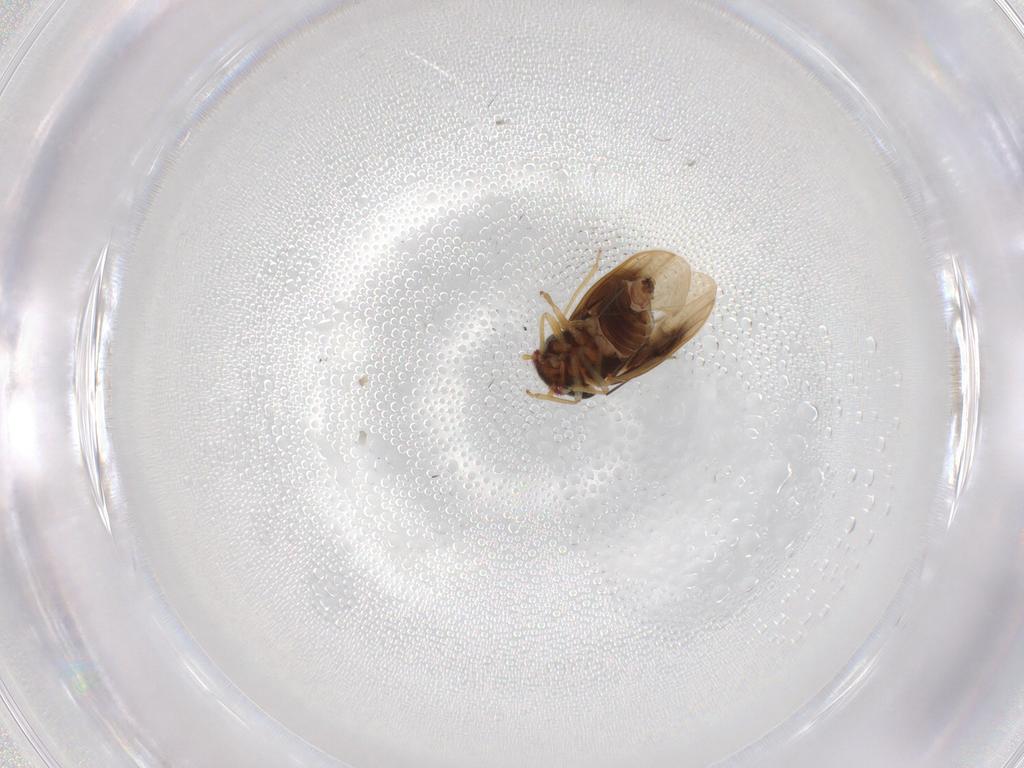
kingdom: Animalia
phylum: Arthropoda
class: Insecta
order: Hemiptera
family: Schizopteridae
